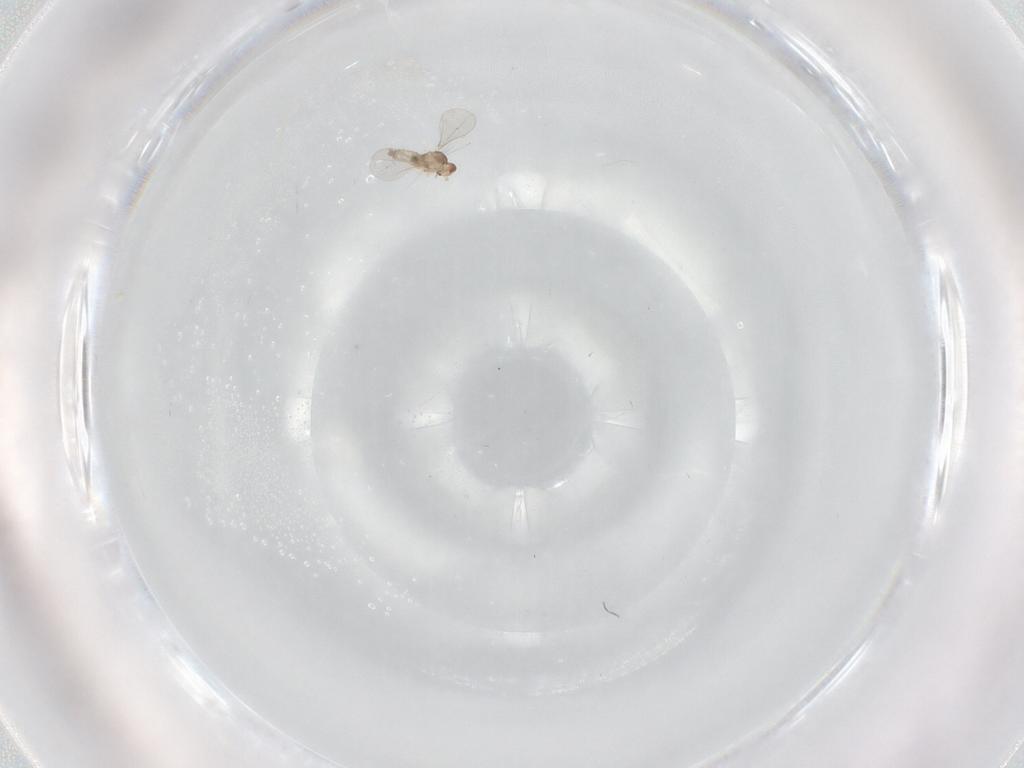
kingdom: Animalia
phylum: Arthropoda
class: Insecta
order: Diptera
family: Cecidomyiidae
